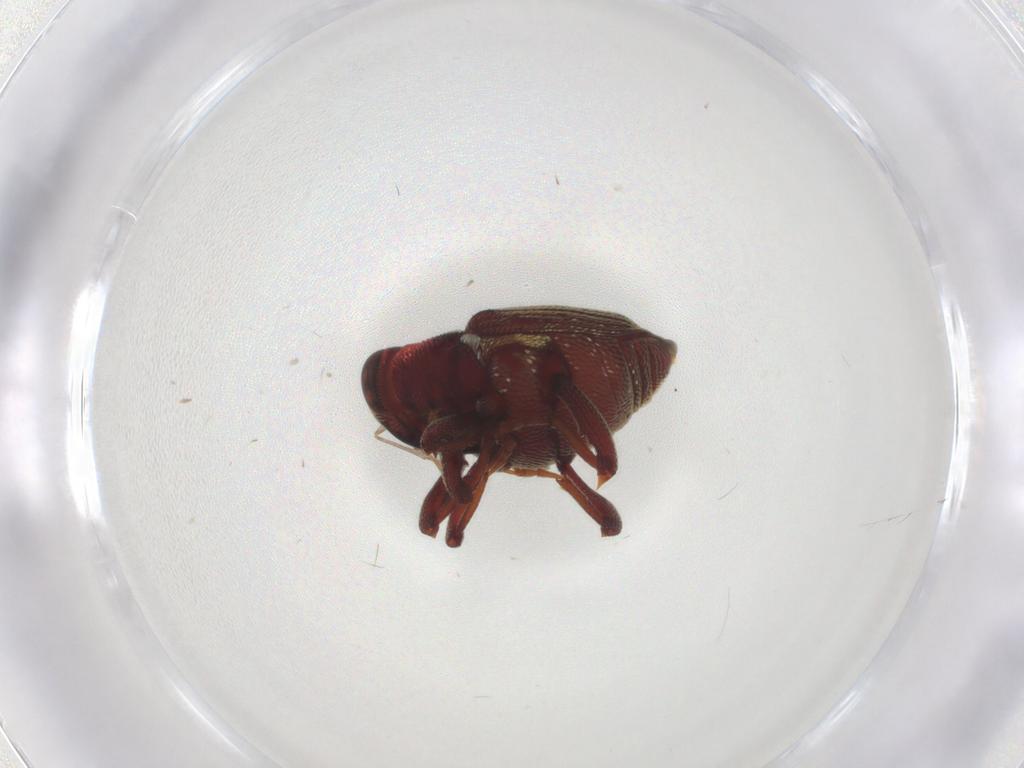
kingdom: Animalia
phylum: Arthropoda
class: Insecta
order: Coleoptera
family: Curculionidae
